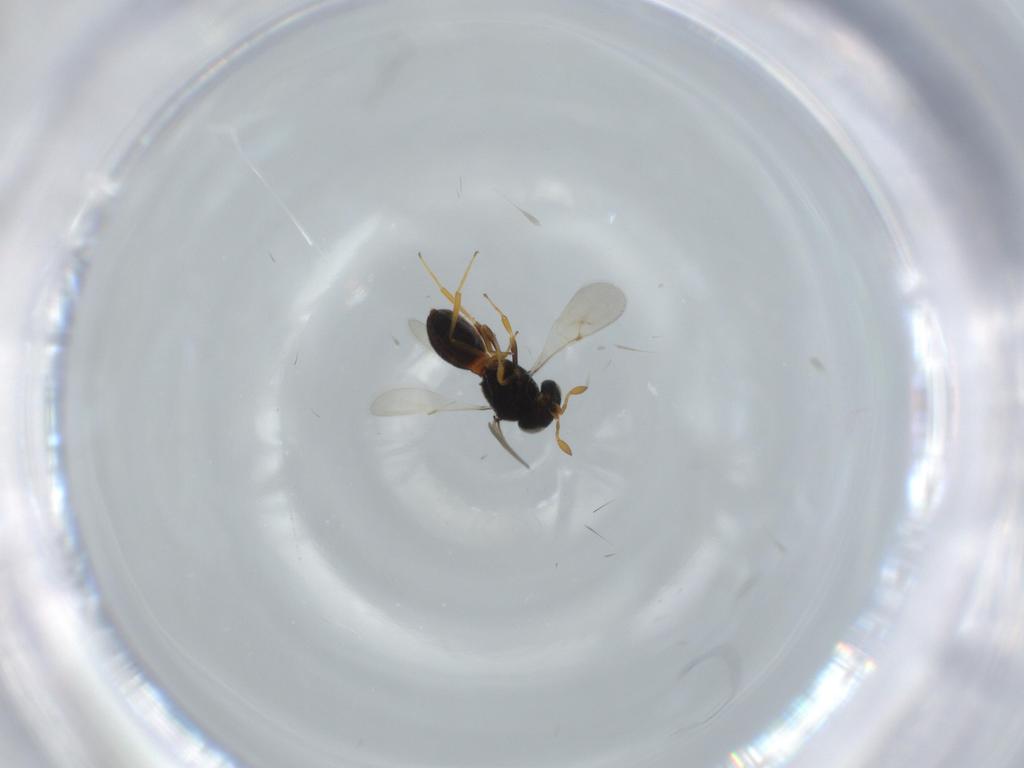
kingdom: Animalia
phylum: Arthropoda
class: Insecta
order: Hymenoptera
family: Scelionidae
